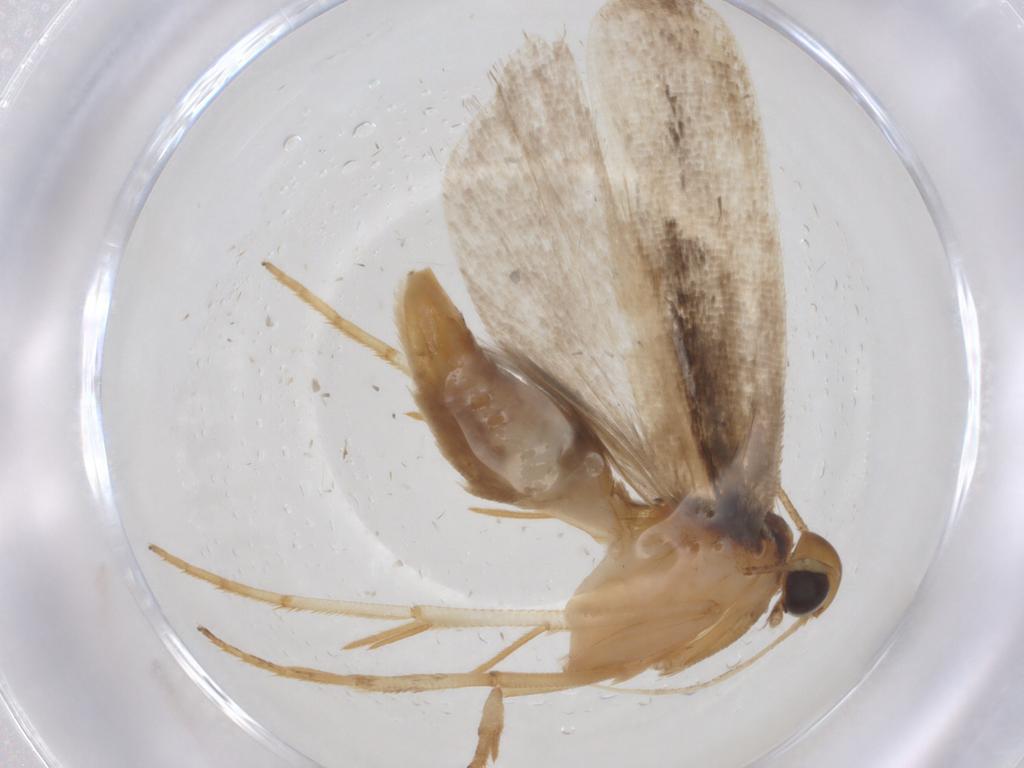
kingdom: Animalia
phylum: Arthropoda
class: Insecta
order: Lepidoptera
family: Gelechiidae
